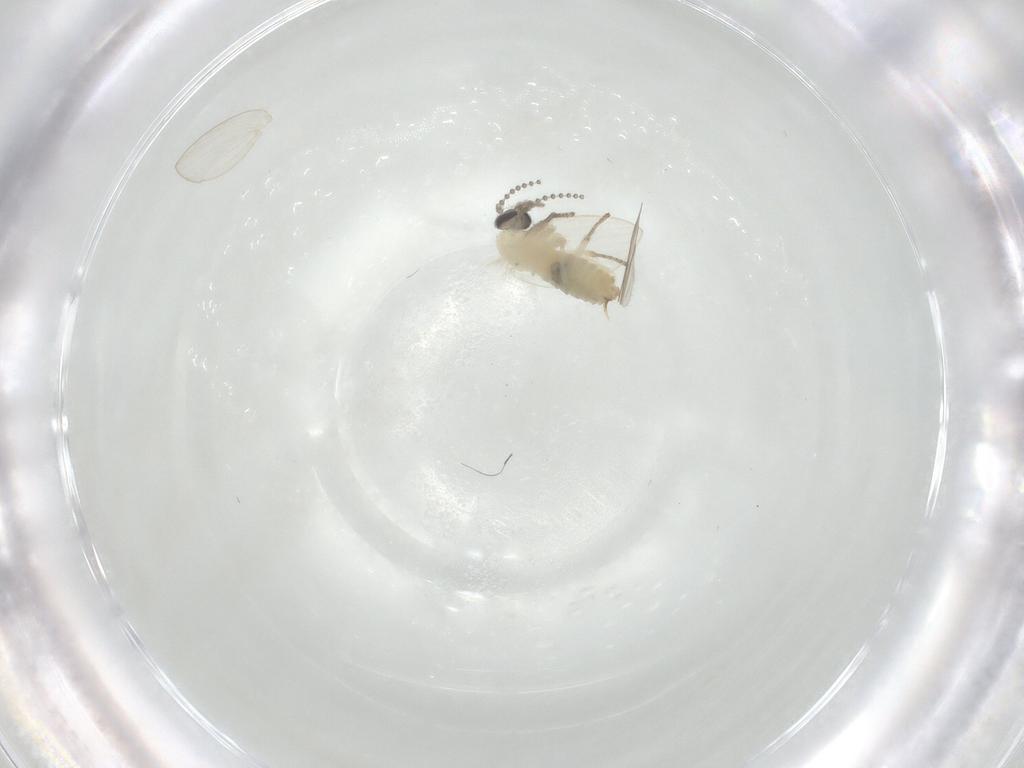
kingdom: Animalia
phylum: Arthropoda
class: Insecta
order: Diptera
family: Psychodidae
